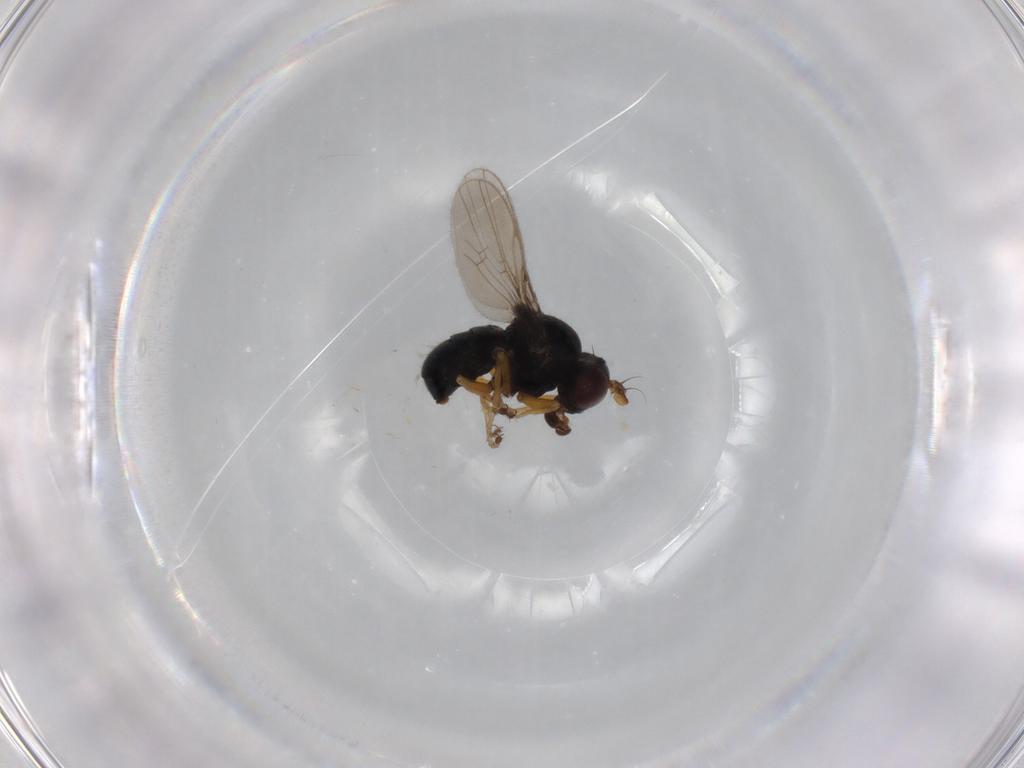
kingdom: Animalia
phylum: Arthropoda
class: Insecta
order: Diptera
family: Ephydridae
